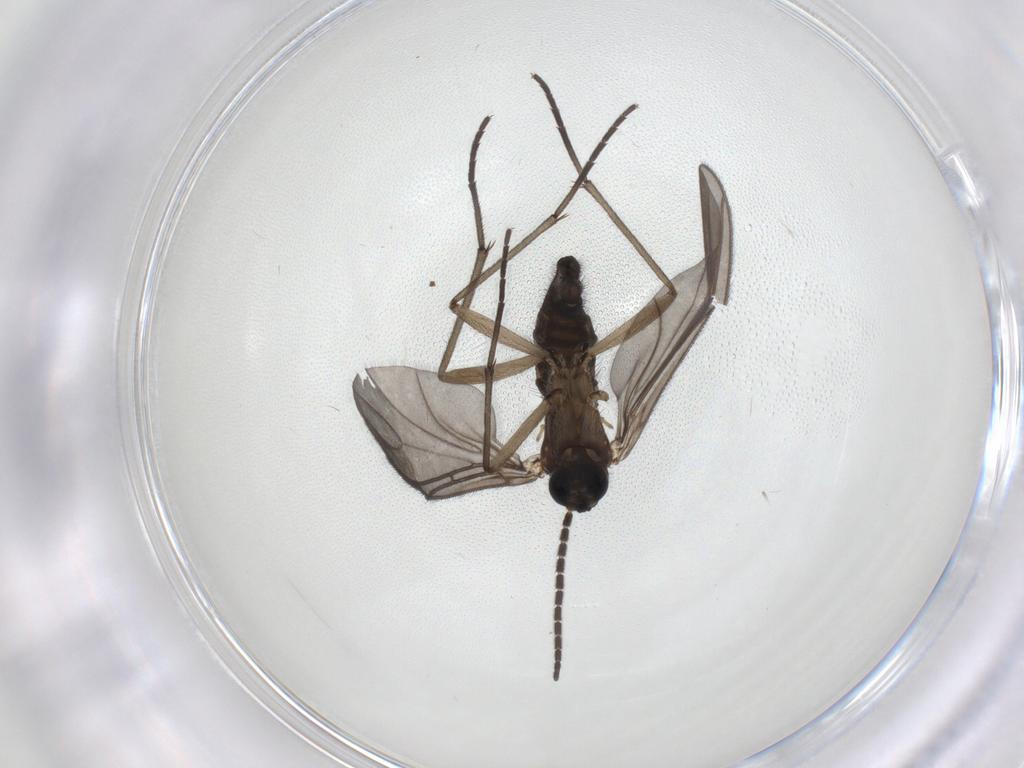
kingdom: Animalia
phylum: Arthropoda
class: Insecta
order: Diptera
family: Sciaridae
